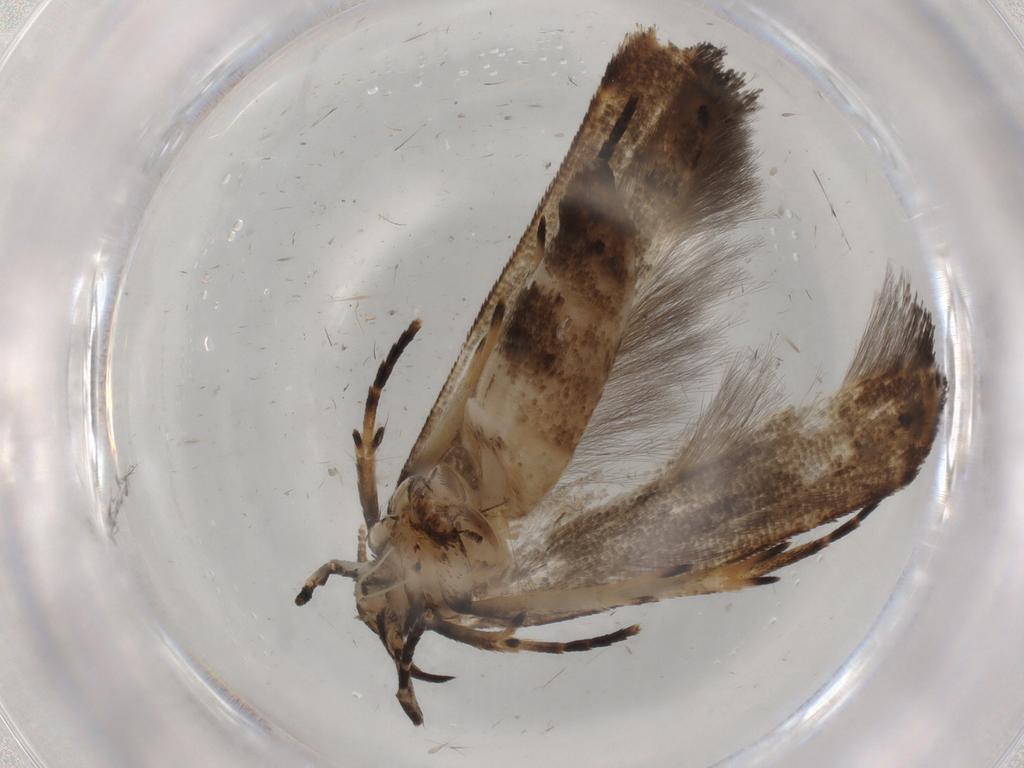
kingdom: Animalia
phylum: Arthropoda
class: Insecta
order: Lepidoptera
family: Cosmopterigidae
